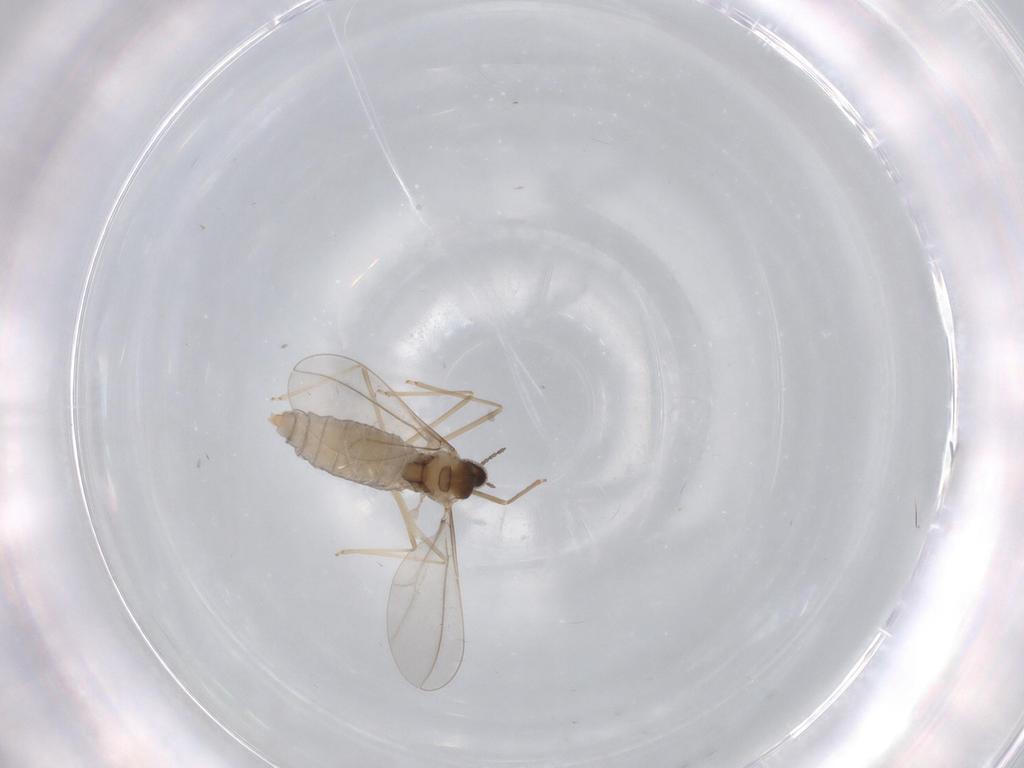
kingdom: Animalia
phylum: Arthropoda
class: Insecta
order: Diptera
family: Cecidomyiidae
